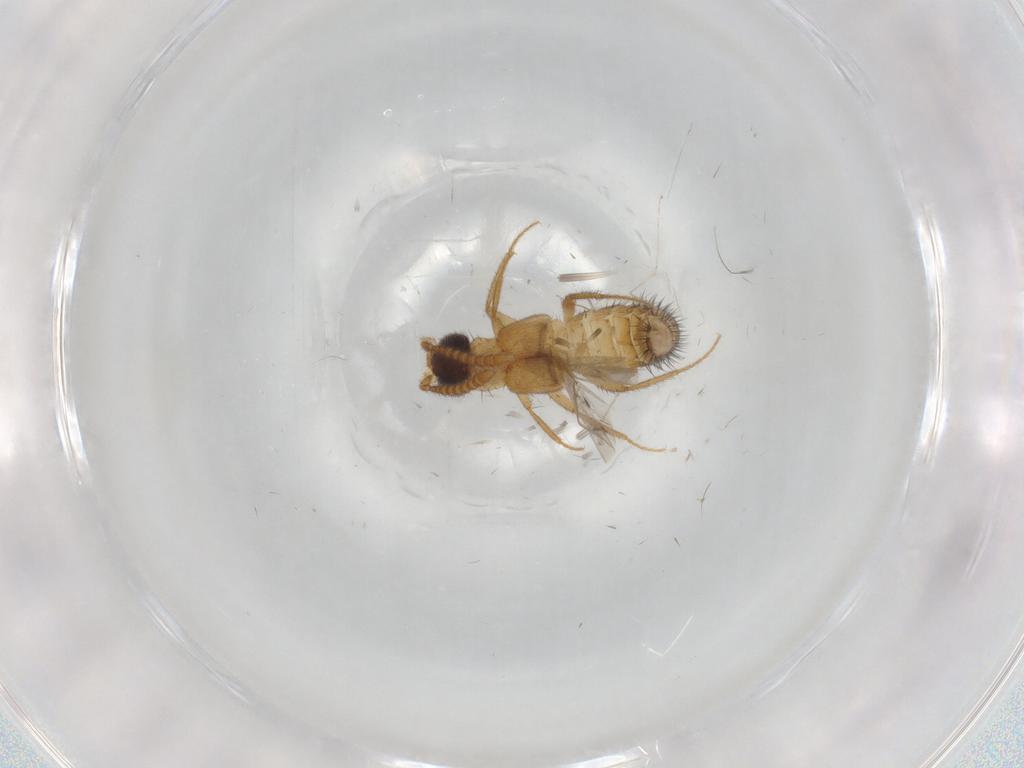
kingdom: Animalia
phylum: Arthropoda
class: Insecta
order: Coleoptera
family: Staphylinidae
